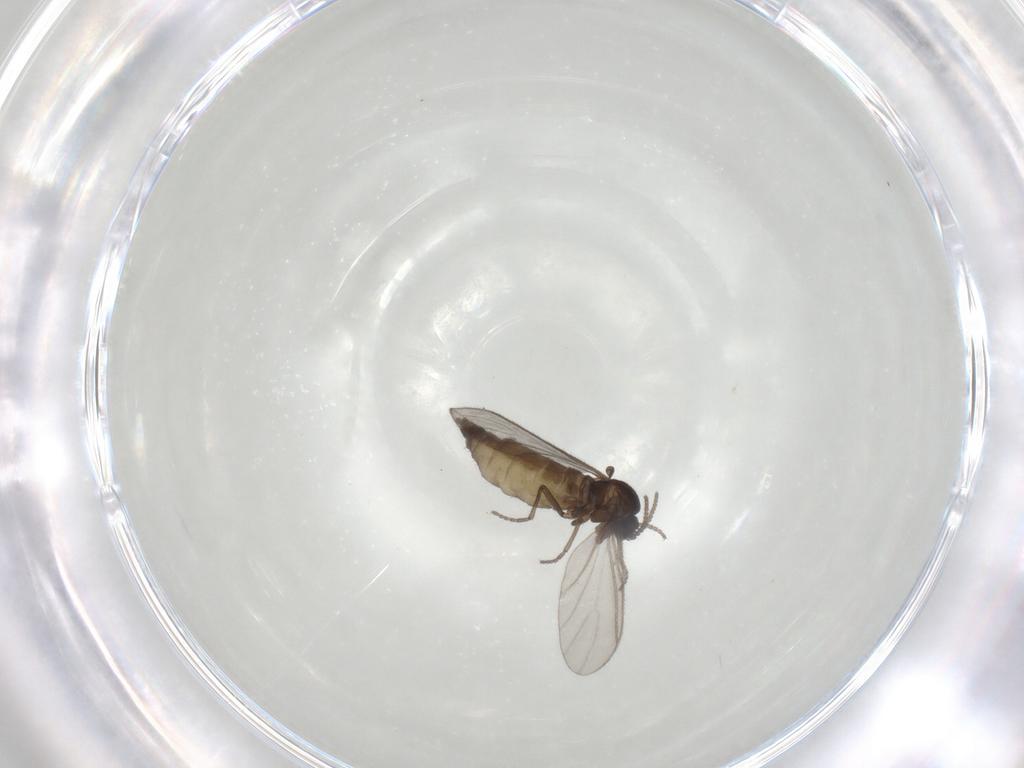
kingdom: Animalia
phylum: Arthropoda
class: Insecta
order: Diptera
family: Sciaridae
